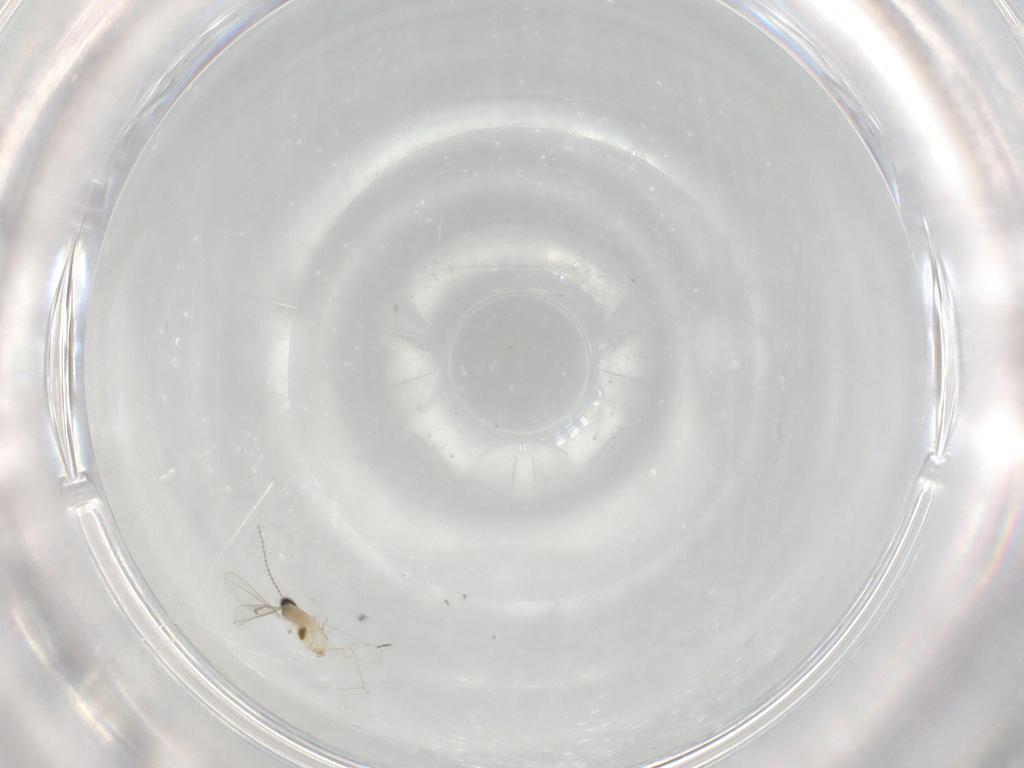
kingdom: Animalia
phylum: Arthropoda
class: Insecta
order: Diptera
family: Cecidomyiidae
